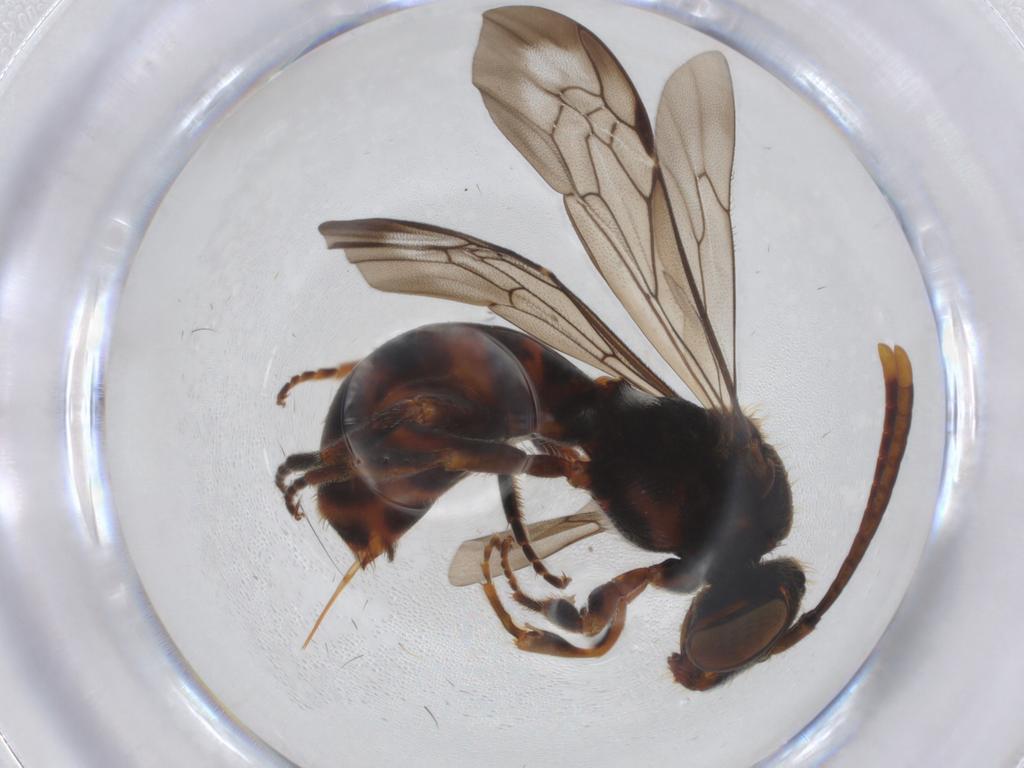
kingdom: Animalia
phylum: Arthropoda
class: Insecta
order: Hymenoptera
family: Apidae
